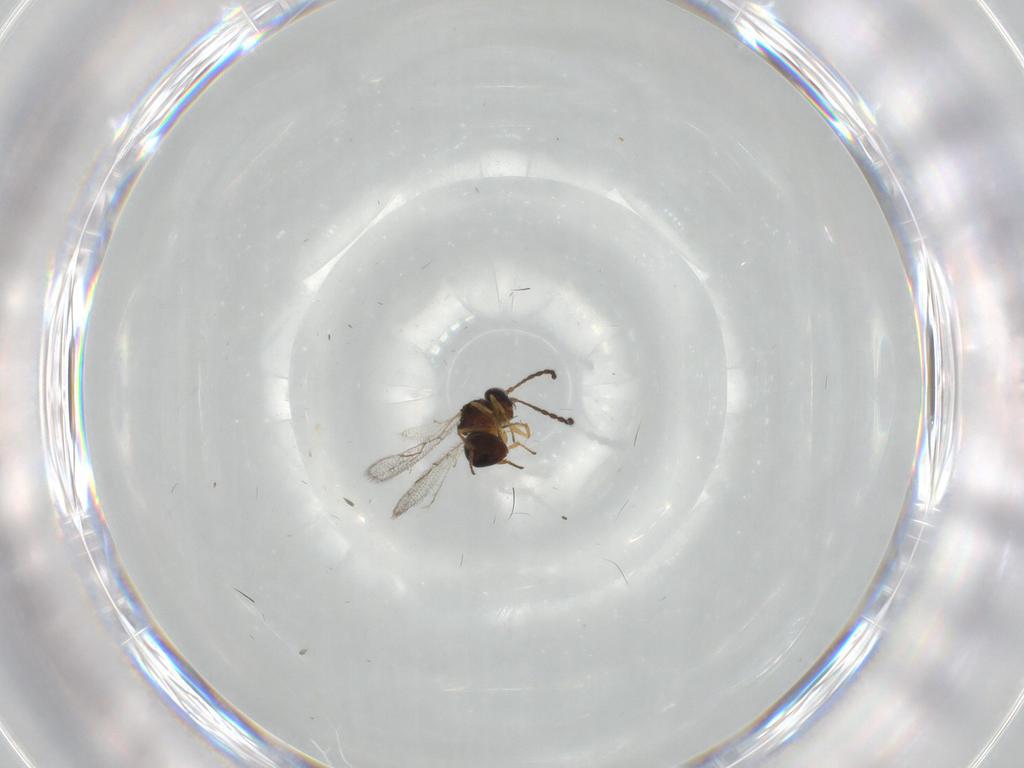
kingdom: Animalia
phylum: Arthropoda
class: Insecta
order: Hymenoptera
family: Figitidae
